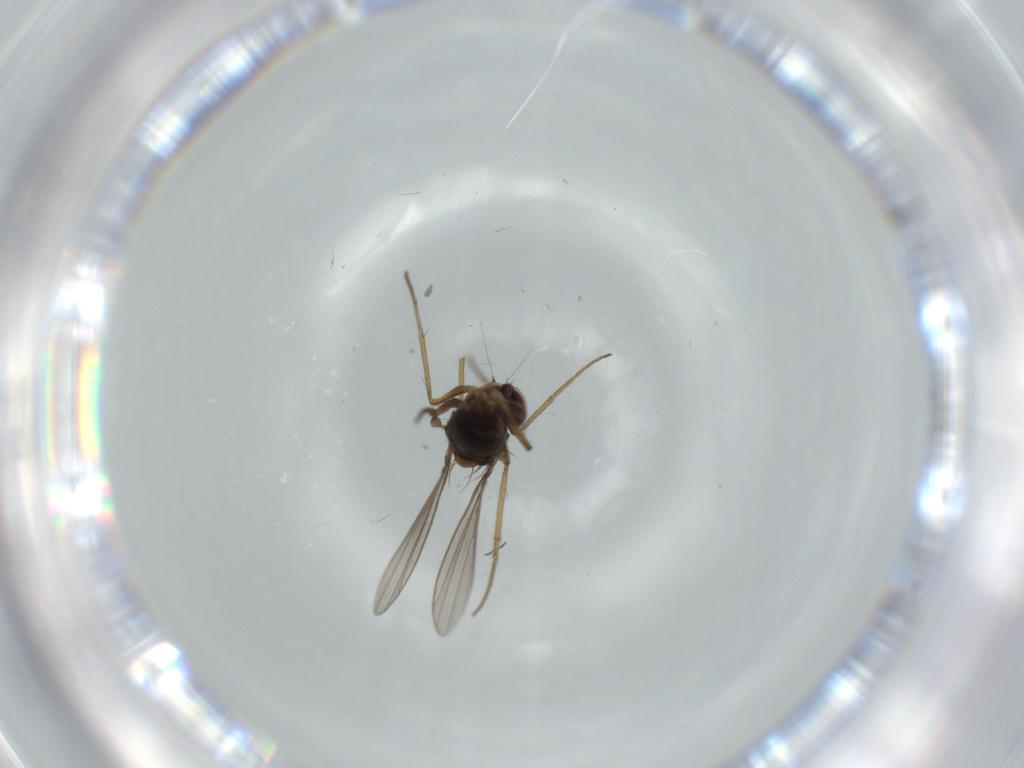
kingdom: Animalia
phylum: Arthropoda
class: Insecta
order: Diptera
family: Dolichopodidae
